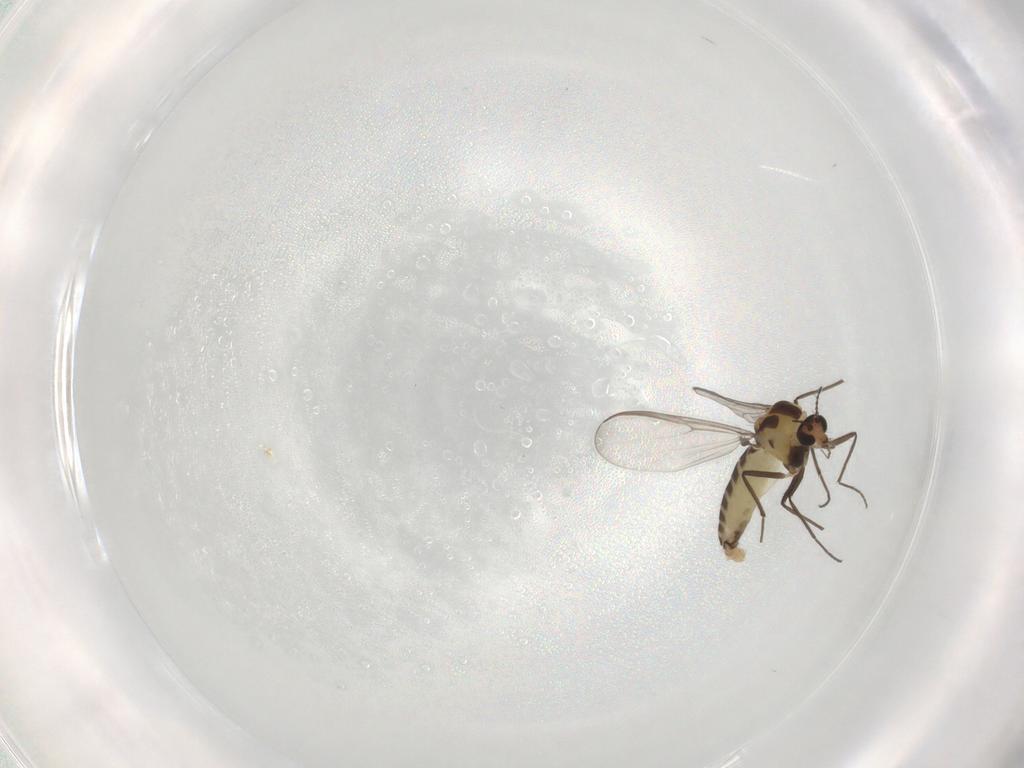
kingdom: Animalia
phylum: Arthropoda
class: Insecta
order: Diptera
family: Chironomidae
